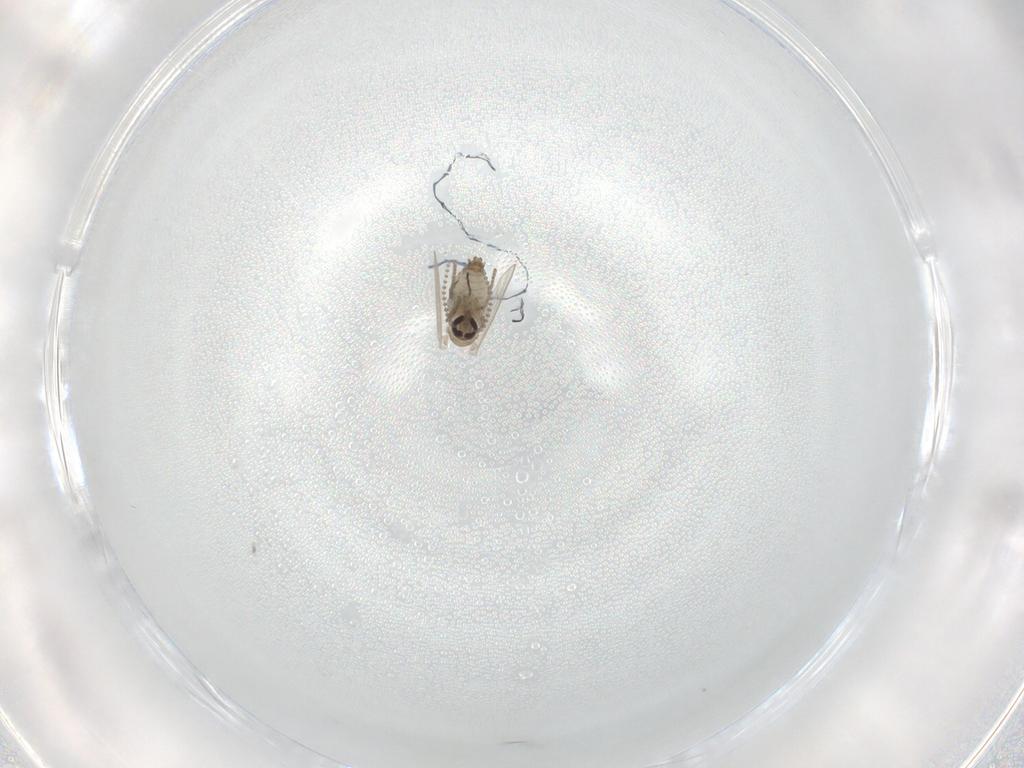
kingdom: Animalia
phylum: Arthropoda
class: Insecta
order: Diptera
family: Psychodidae
